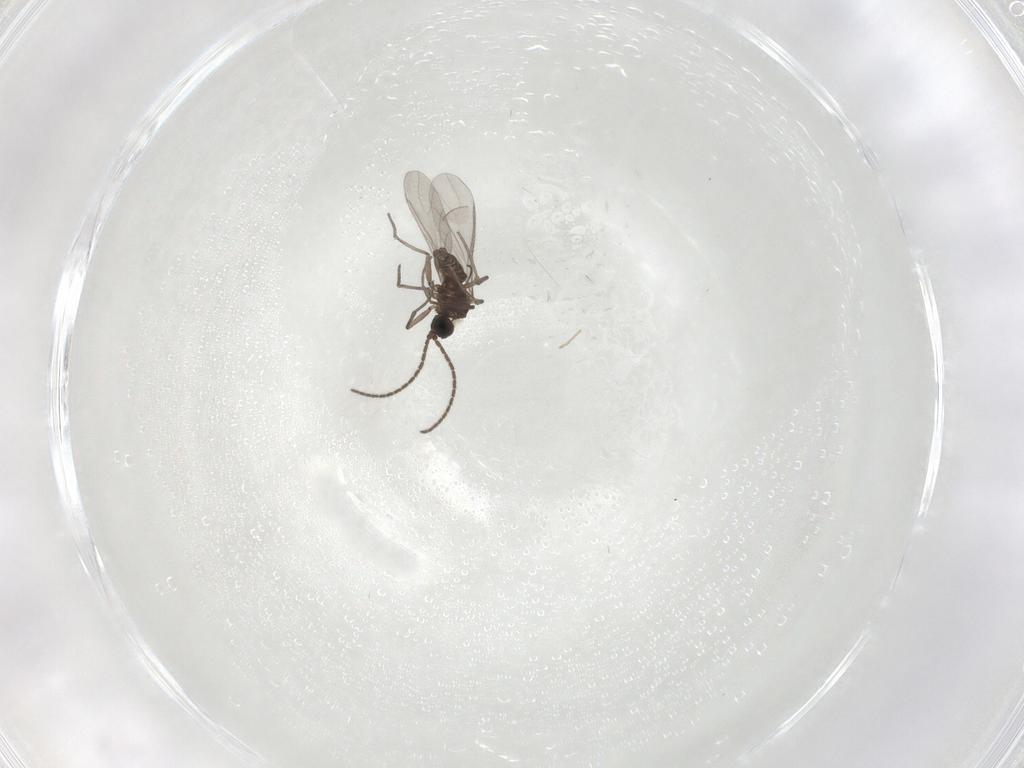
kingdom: Animalia
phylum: Arthropoda
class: Insecta
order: Diptera
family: Sciaridae
